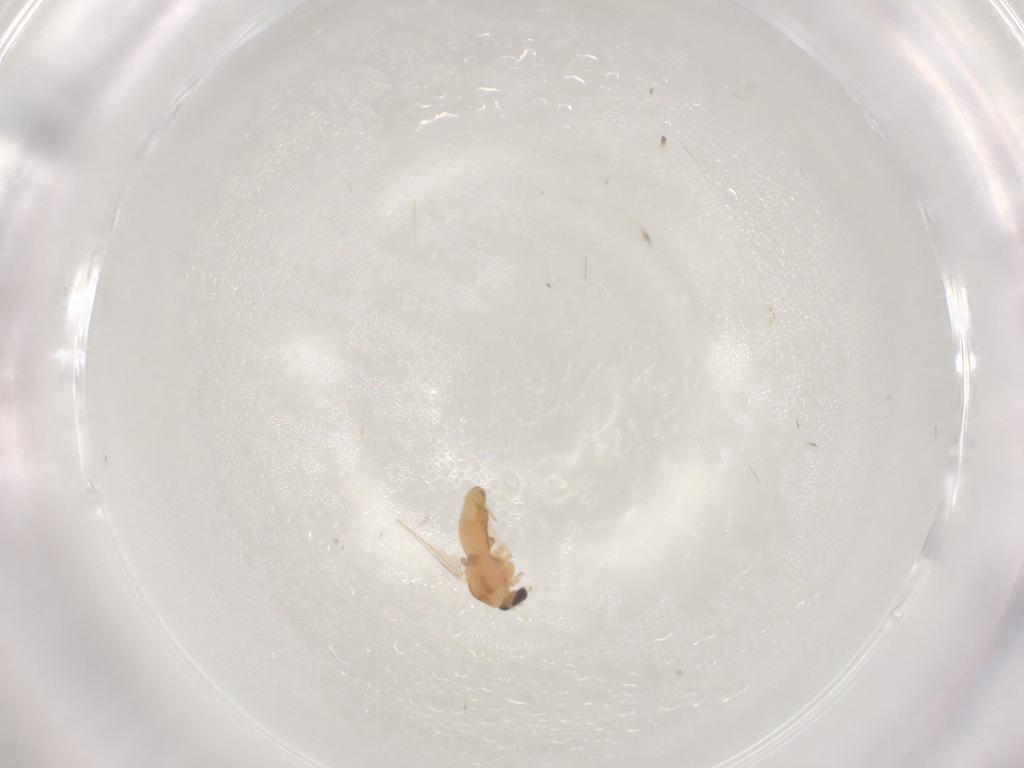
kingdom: Animalia
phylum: Arthropoda
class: Insecta
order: Diptera
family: Chironomidae
